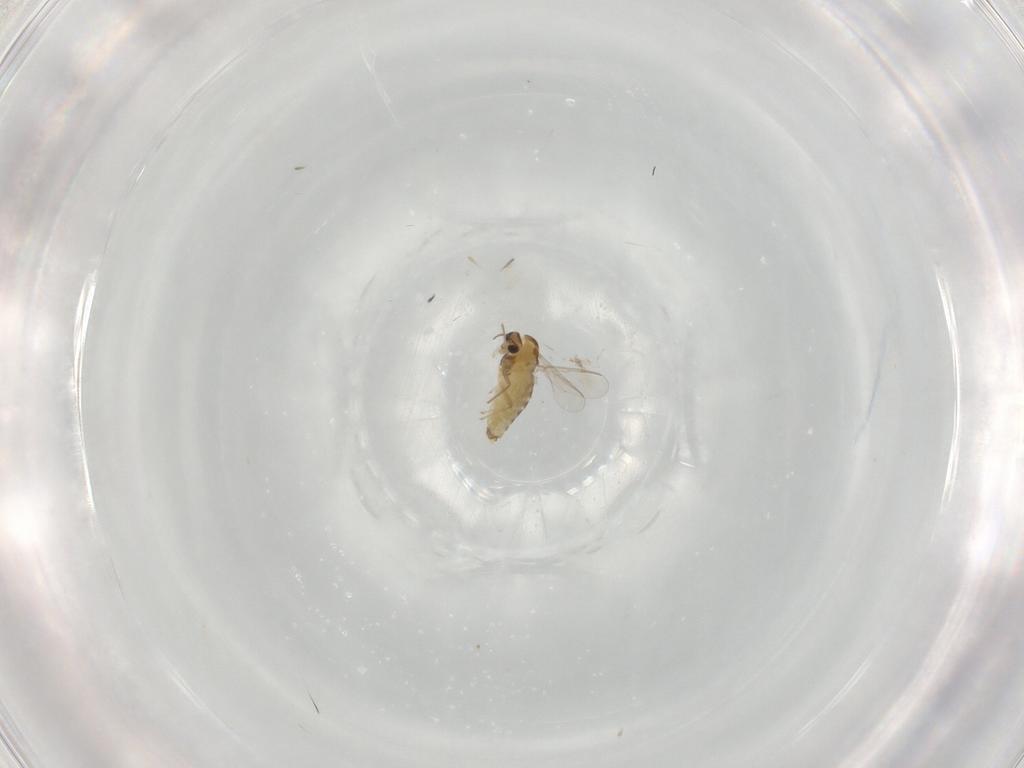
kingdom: Animalia
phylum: Arthropoda
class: Insecta
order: Diptera
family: Chironomidae
